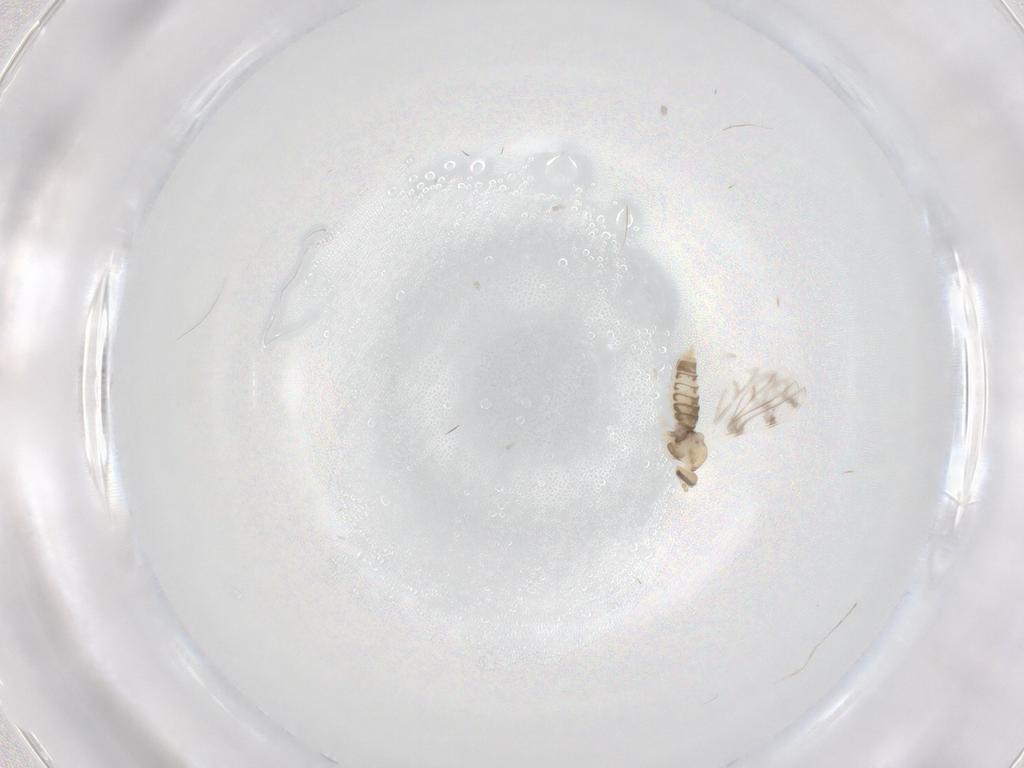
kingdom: Animalia
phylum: Arthropoda
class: Insecta
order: Diptera
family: Cecidomyiidae
